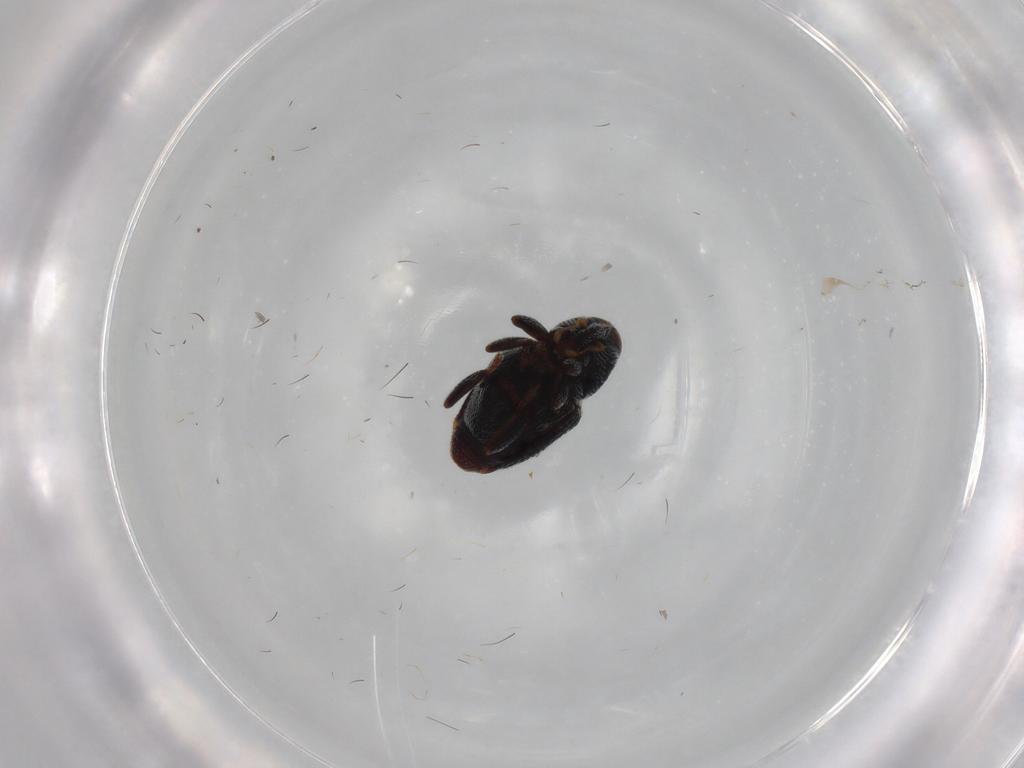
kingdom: Animalia
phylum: Arthropoda
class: Insecta
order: Coleoptera
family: Curculionidae
